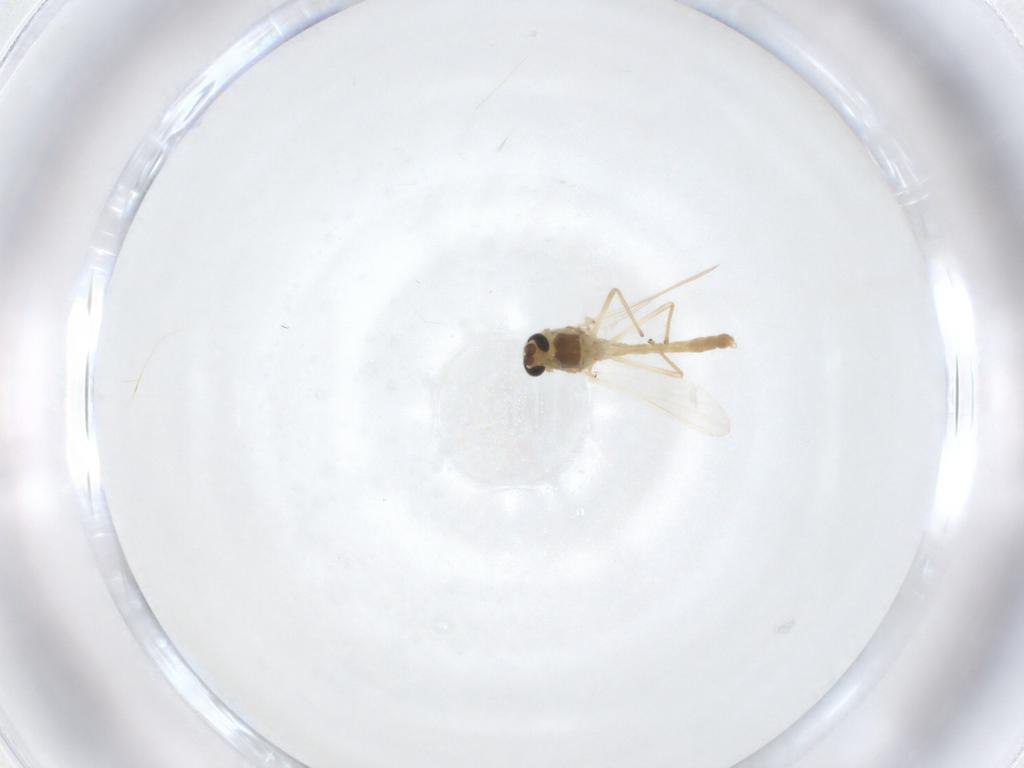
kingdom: Animalia
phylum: Arthropoda
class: Insecta
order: Diptera
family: Chironomidae
